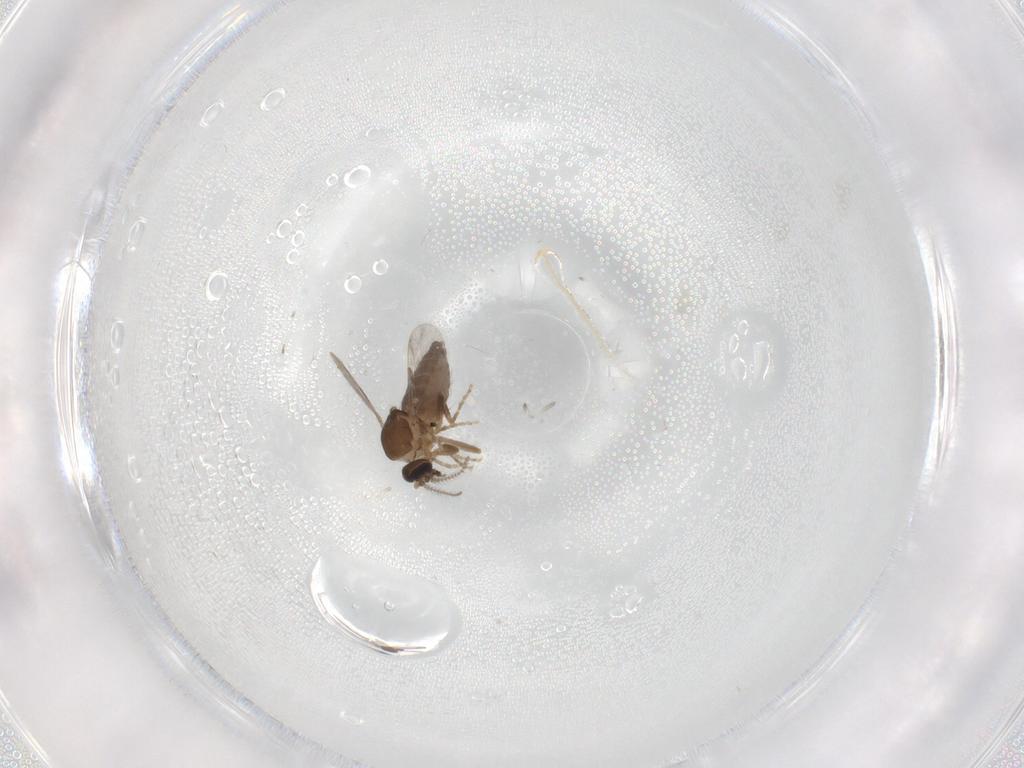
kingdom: Animalia
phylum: Arthropoda
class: Insecta
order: Diptera
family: Ceratopogonidae
